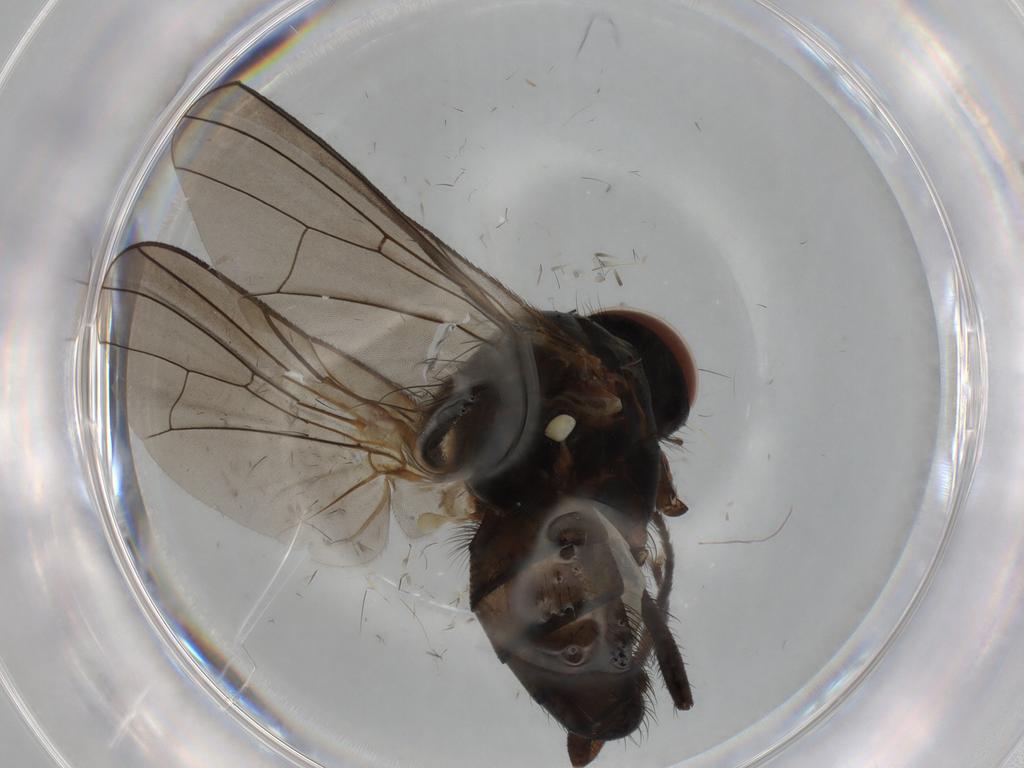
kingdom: Animalia
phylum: Arthropoda
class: Insecta
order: Diptera
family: Anthomyiidae
